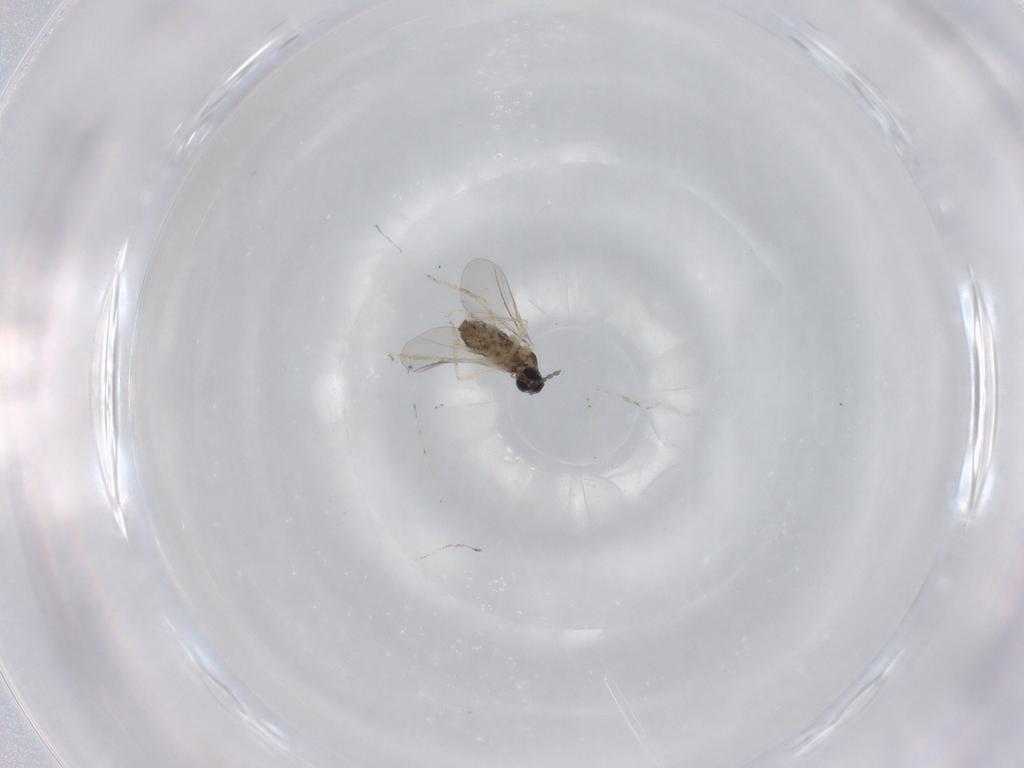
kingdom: Animalia
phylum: Arthropoda
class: Insecta
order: Diptera
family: Cecidomyiidae
